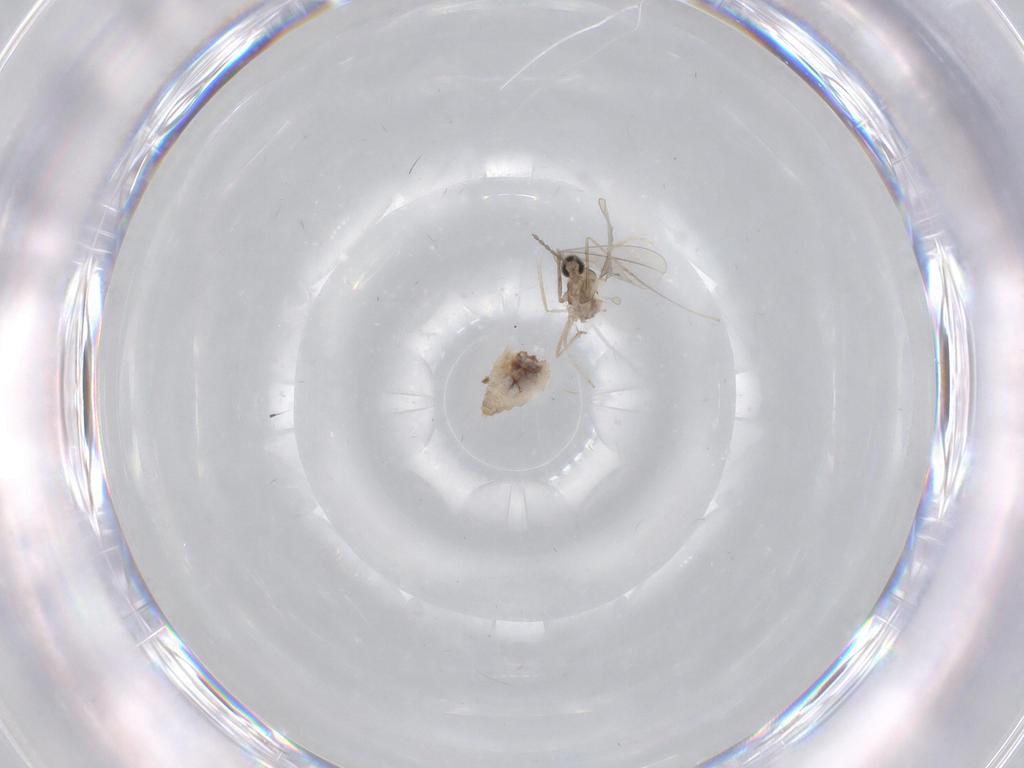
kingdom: Animalia
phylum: Arthropoda
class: Insecta
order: Diptera
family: Cecidomyiidae
